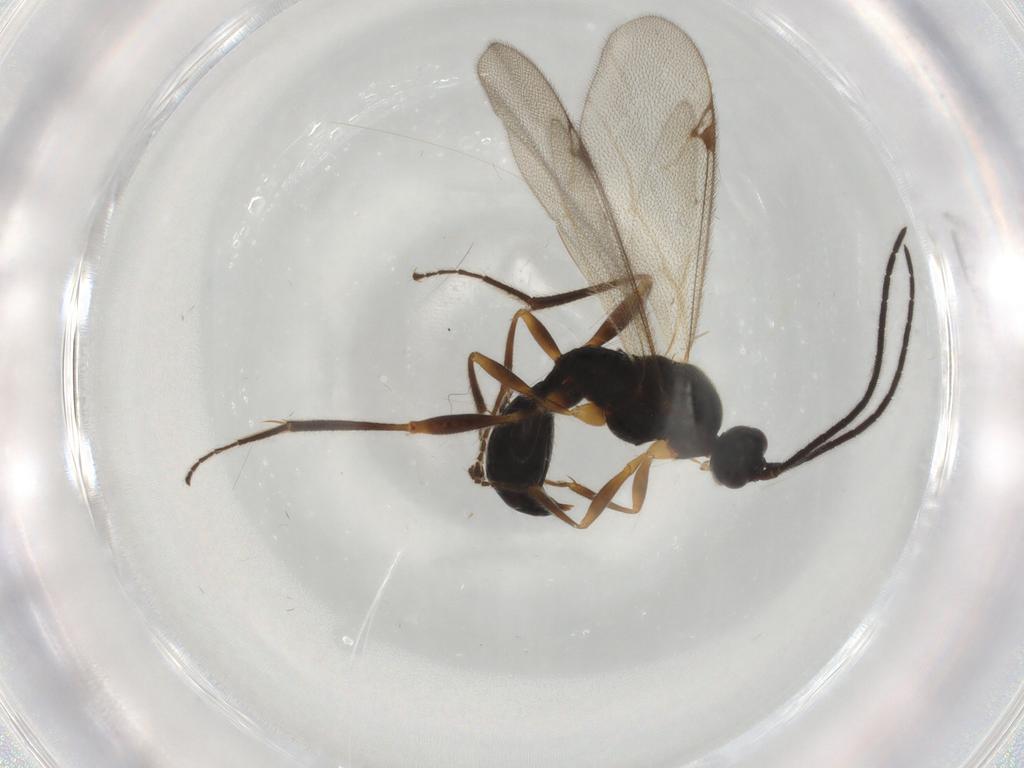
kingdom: Animalia
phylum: Arthropoda
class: Insecta
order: Hymenoptera
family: Proctotrupidae
